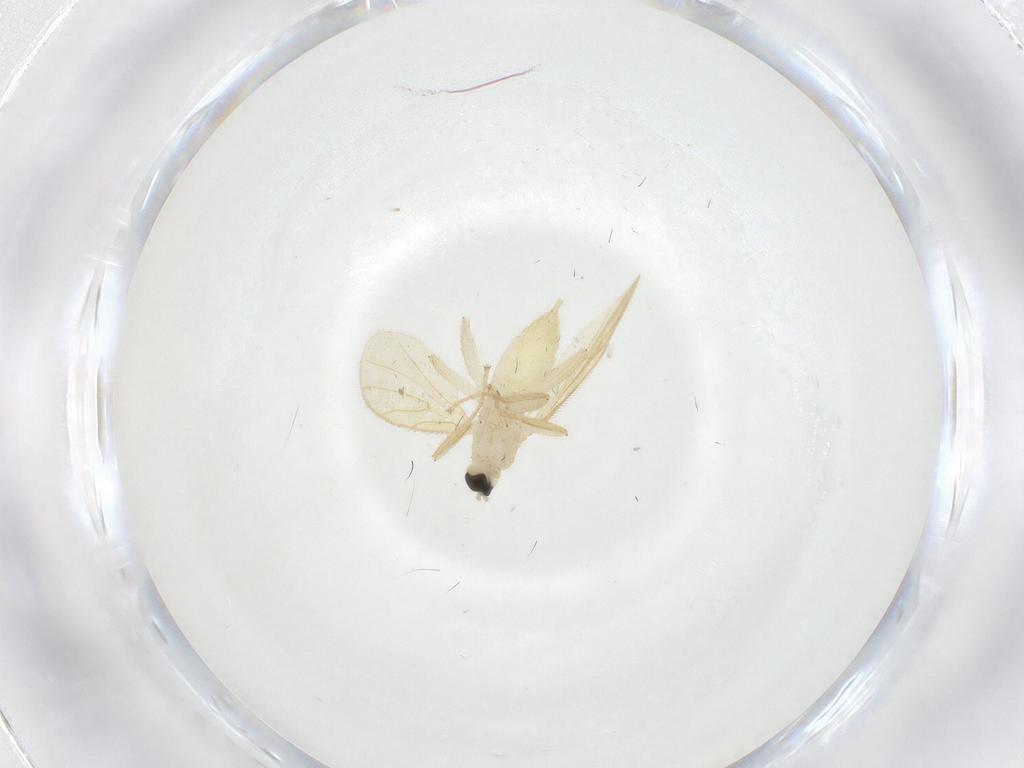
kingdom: Animalia
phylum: Arthropoda
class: Insecta
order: Diptera
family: Hybotidae
